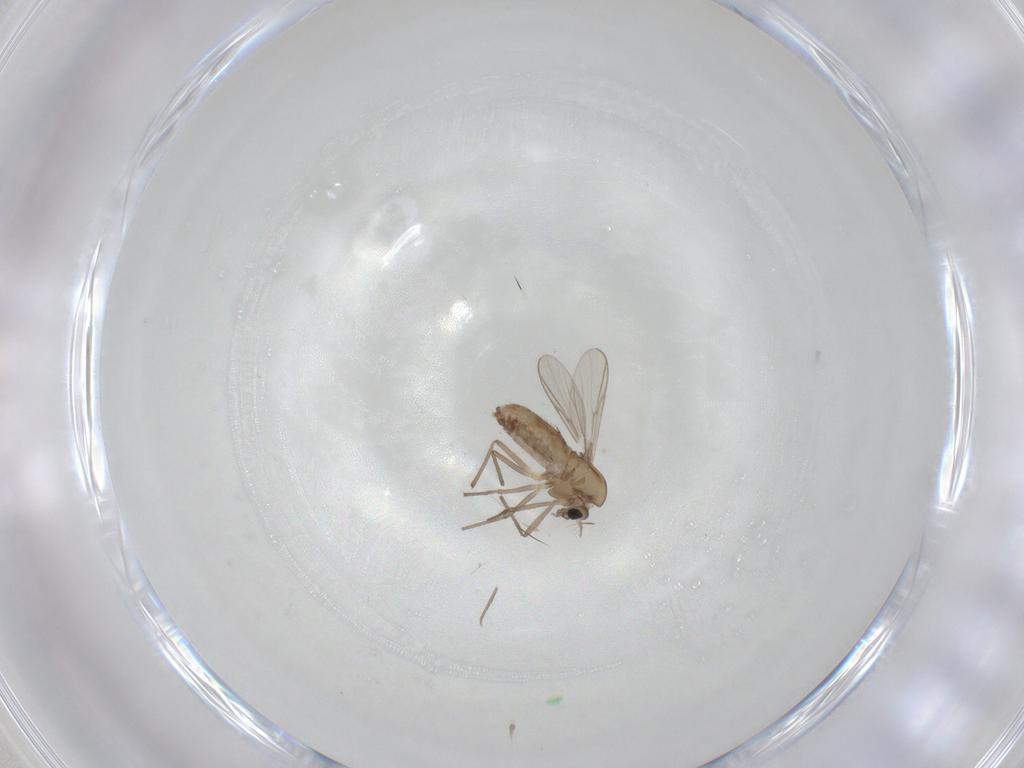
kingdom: Animalia
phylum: Arthropoda
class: Insecta
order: Diptera
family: Chironomidae
